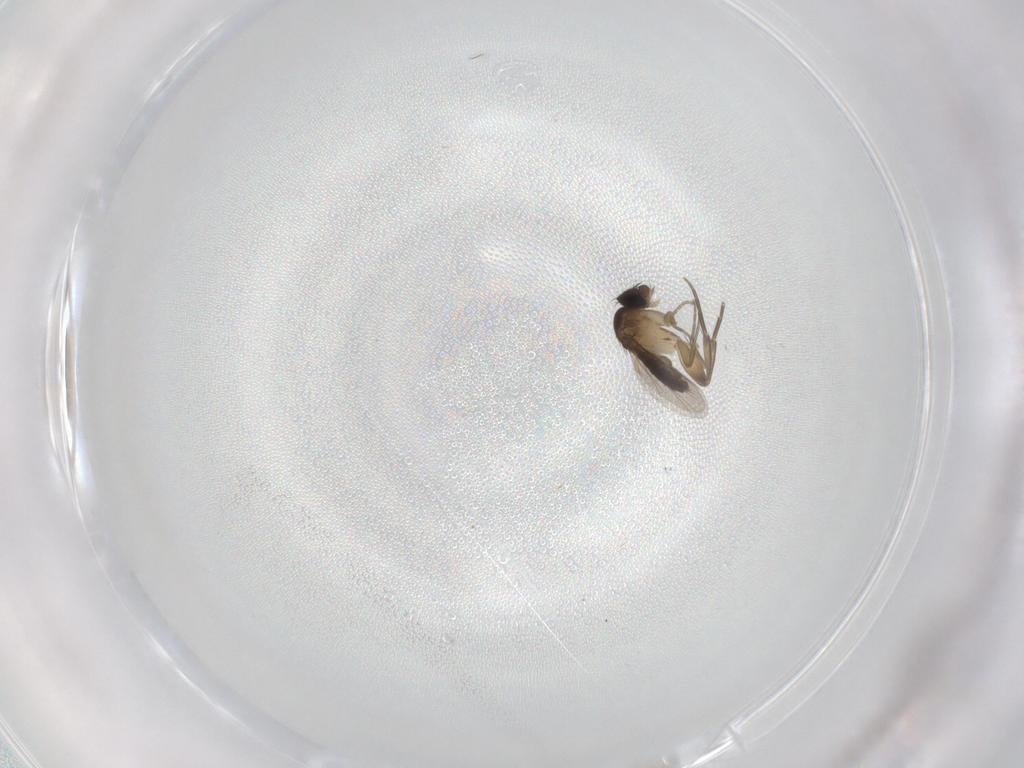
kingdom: Animalia
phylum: Arthropoda
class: Insecta
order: Diptera
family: Phoridae
